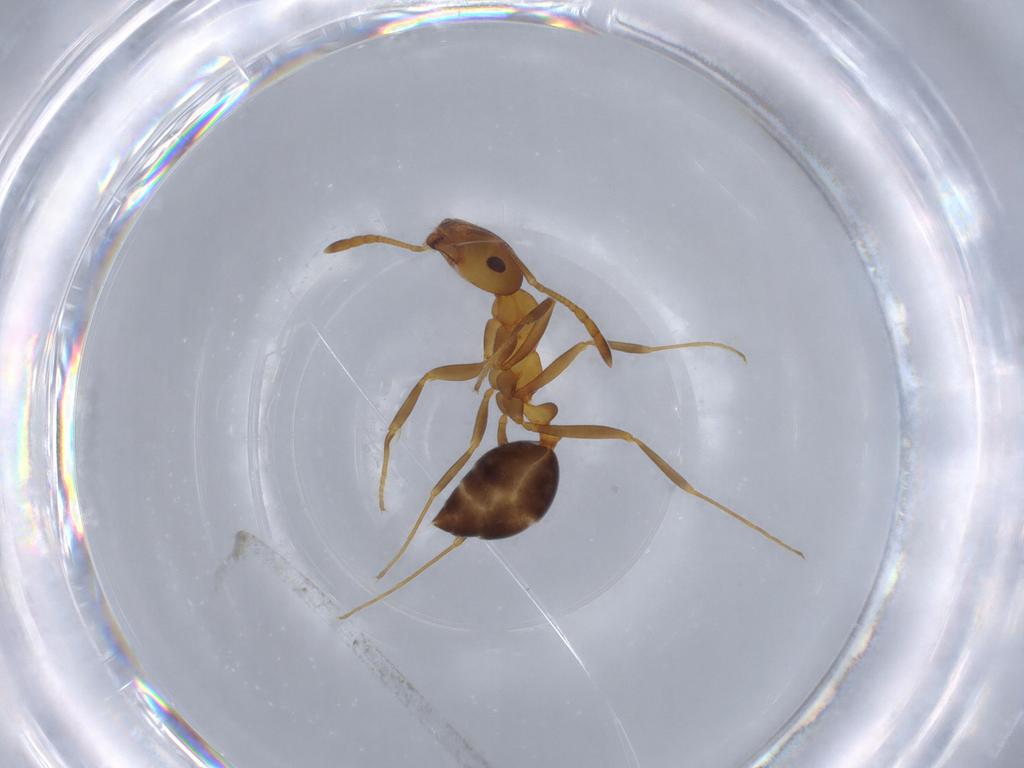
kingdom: Animalia
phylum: Arthropoda
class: Insecta
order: Hymenoptera
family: Formicidae
